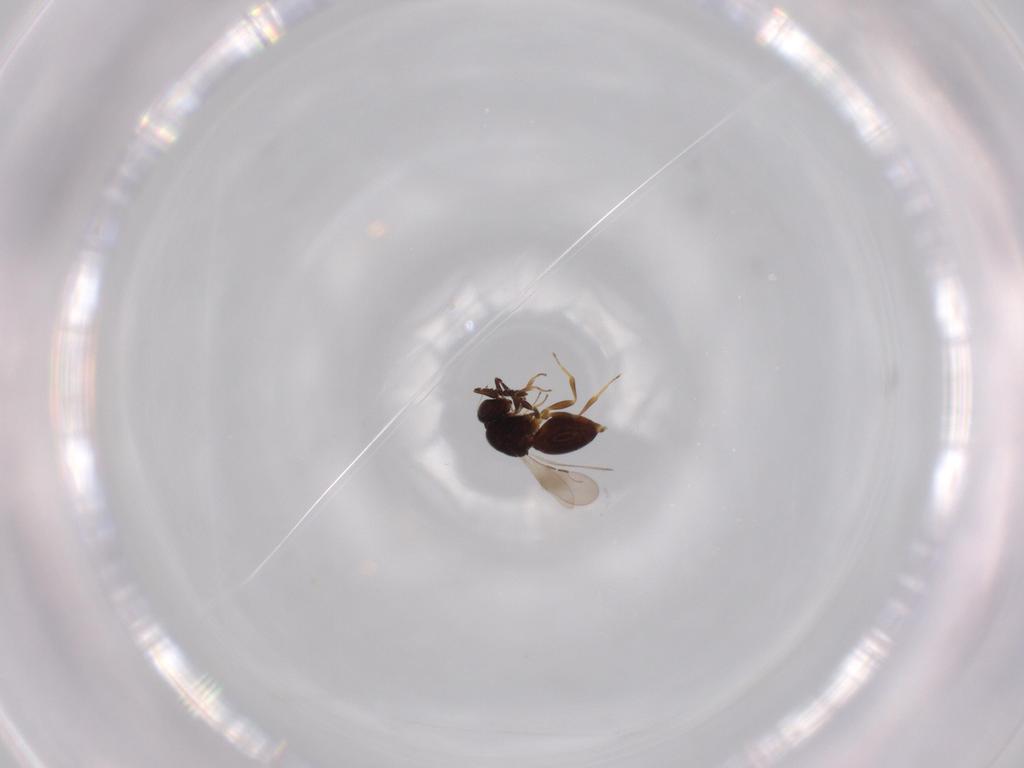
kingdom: Animalia
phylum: Arthropoda
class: Insecta
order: Hymenoptera
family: Ceraphronidae
